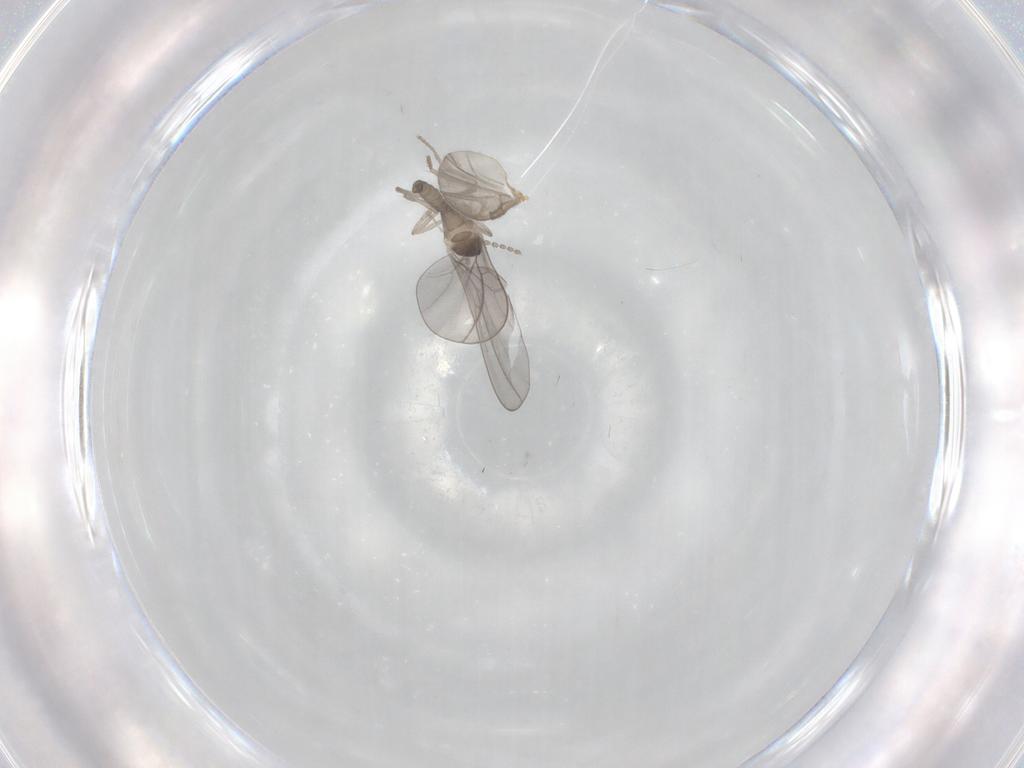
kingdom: Animalia
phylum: Arthropoda
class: Insecta
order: Diptera
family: Cecidomyiidae
